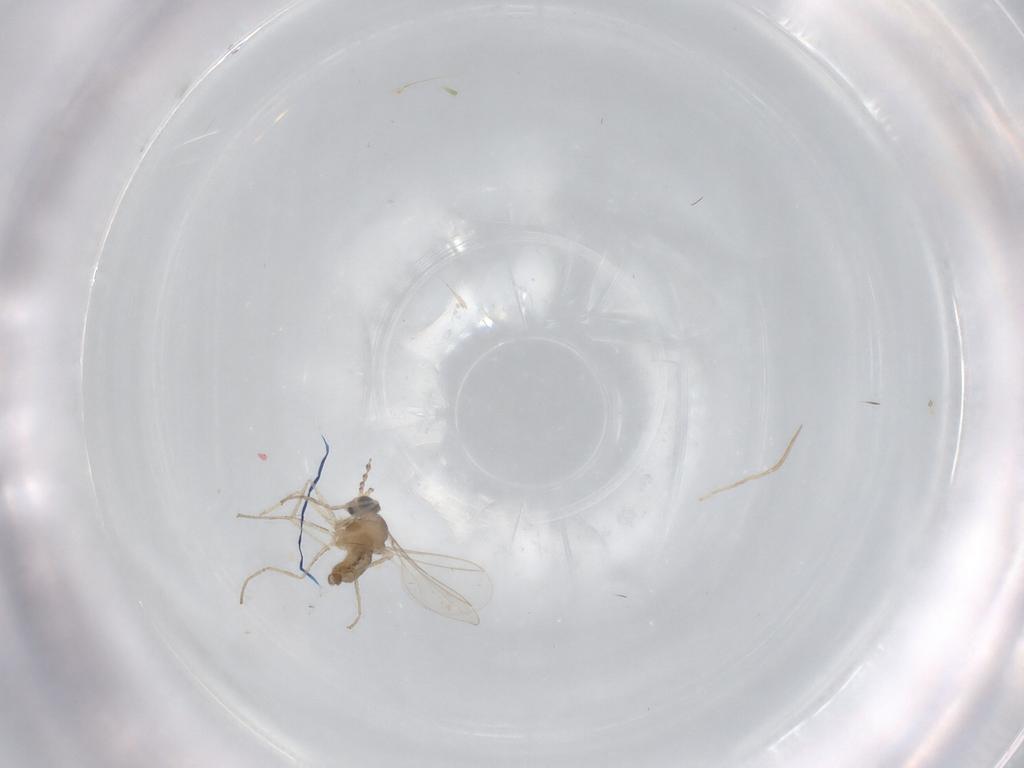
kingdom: Animalia
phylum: Arthropoda
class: Insecta
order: Diptera
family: Cecidomyiidae
